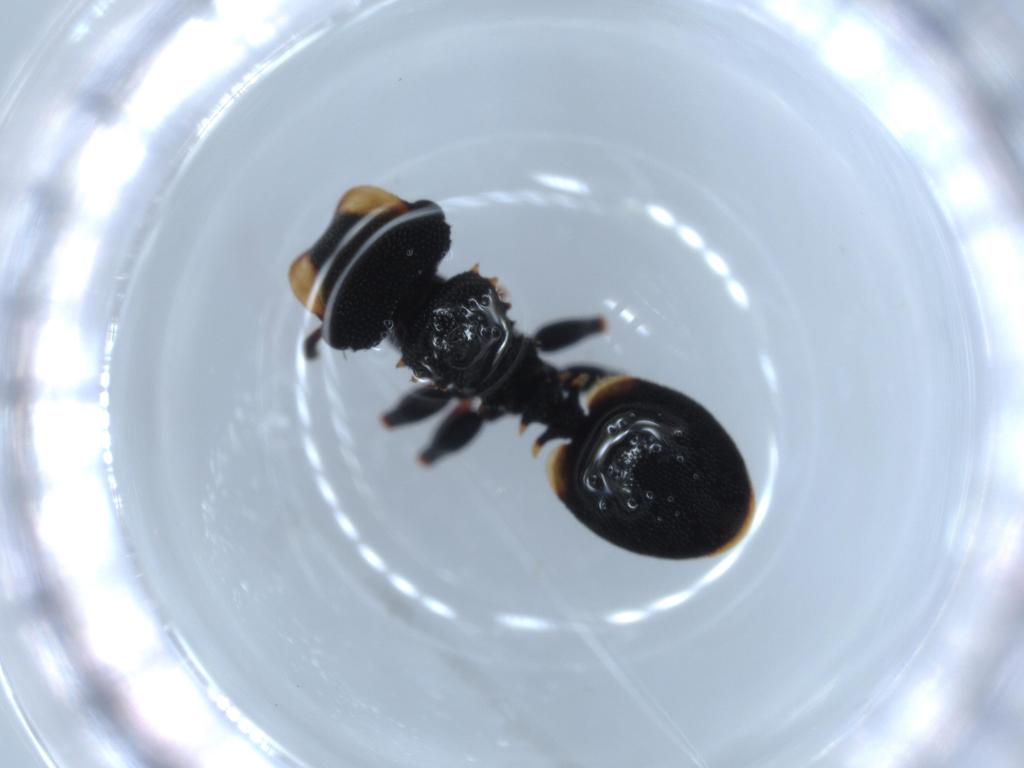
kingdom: Animalia
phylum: Arthropoda
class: Insecta
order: Hymenoptera
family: Formicidae
